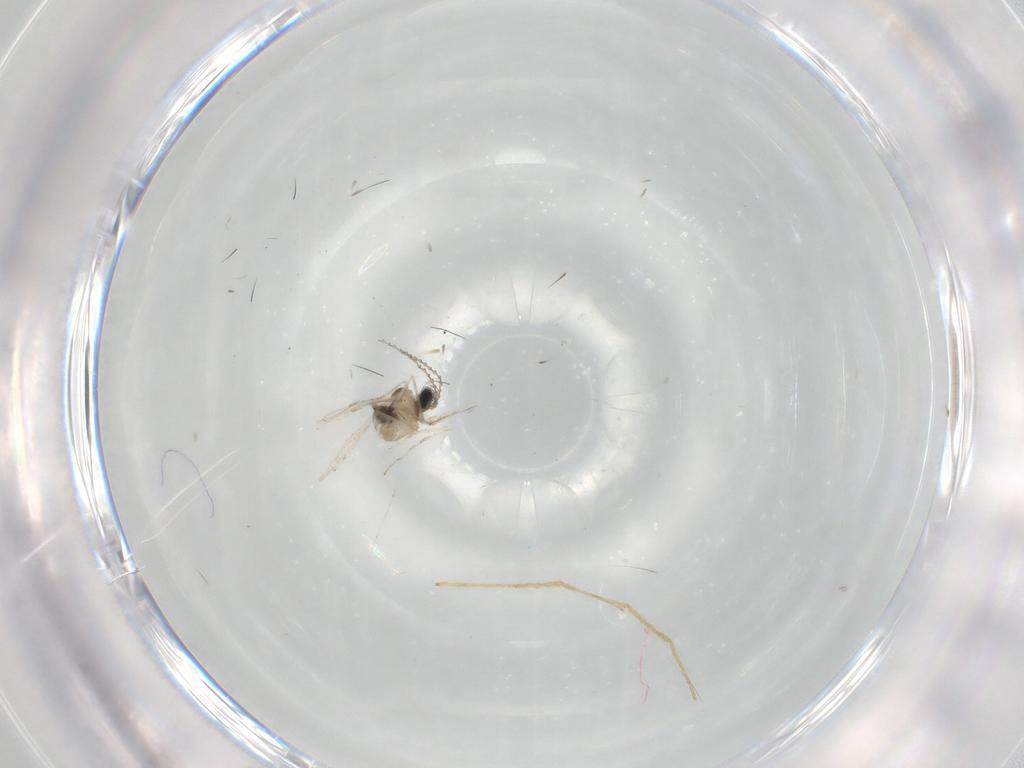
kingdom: Animalia
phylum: Arthropoda
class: Insecta
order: Diptera
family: Cecidomyiidae
